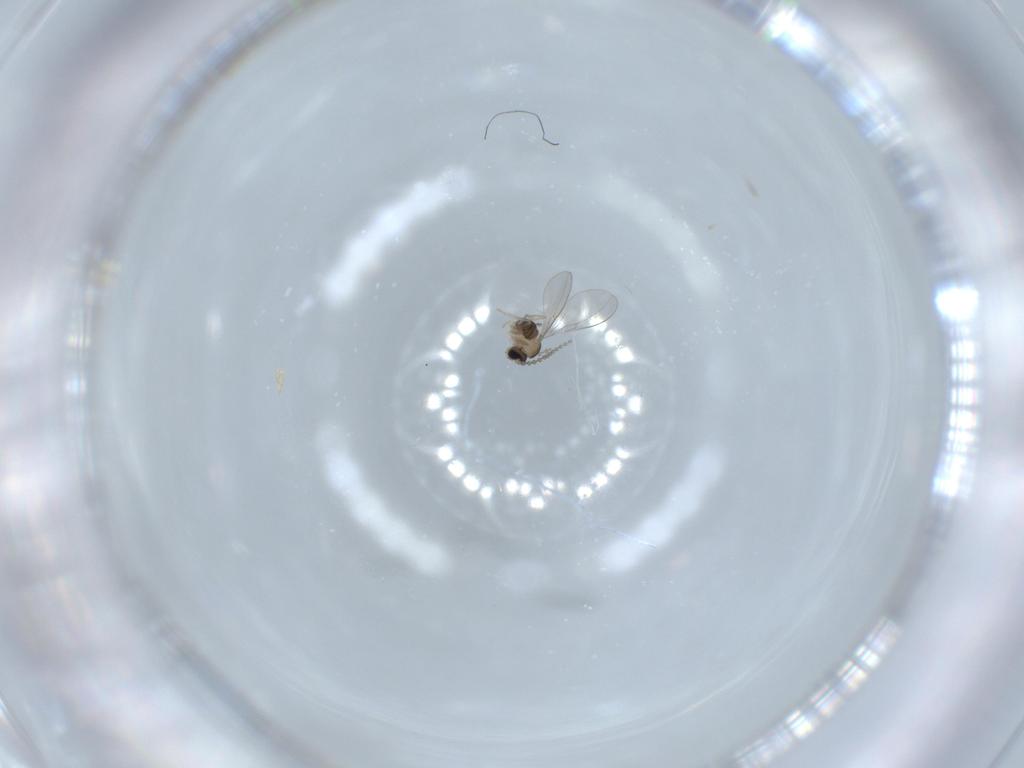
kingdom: Animalia
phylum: Arthropoda
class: Insecta
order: Diptera
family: Cecidomyiidae
